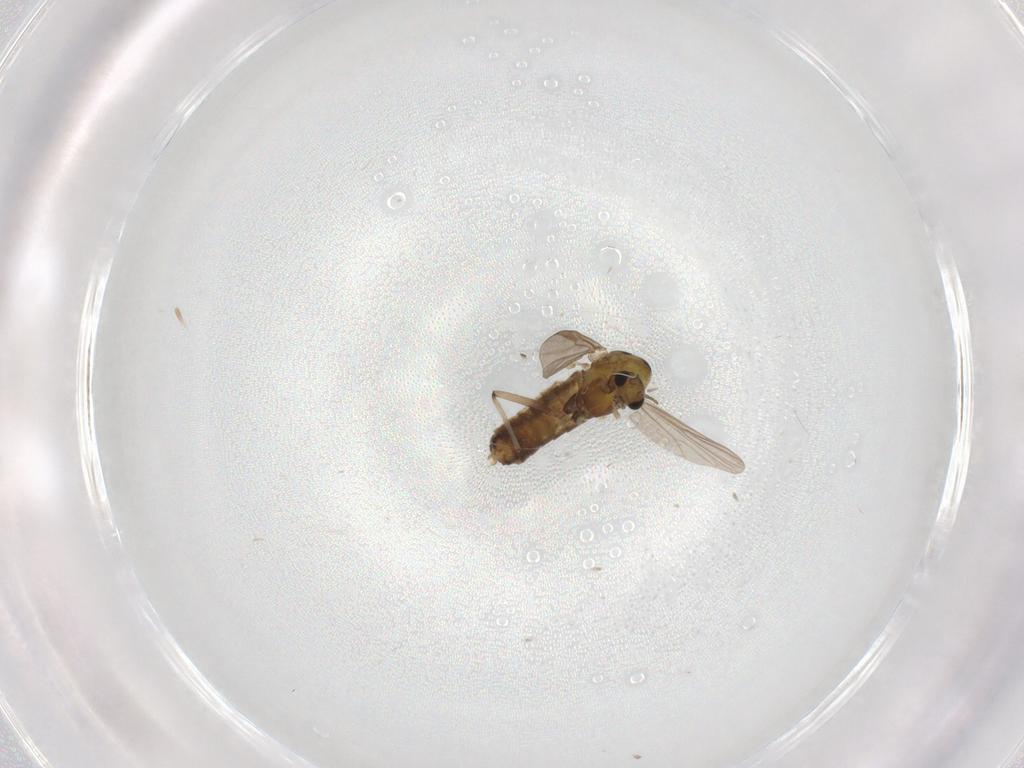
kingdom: Animalia
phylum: Arthropoda
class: Insecta
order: Diptera
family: Chironomidae
